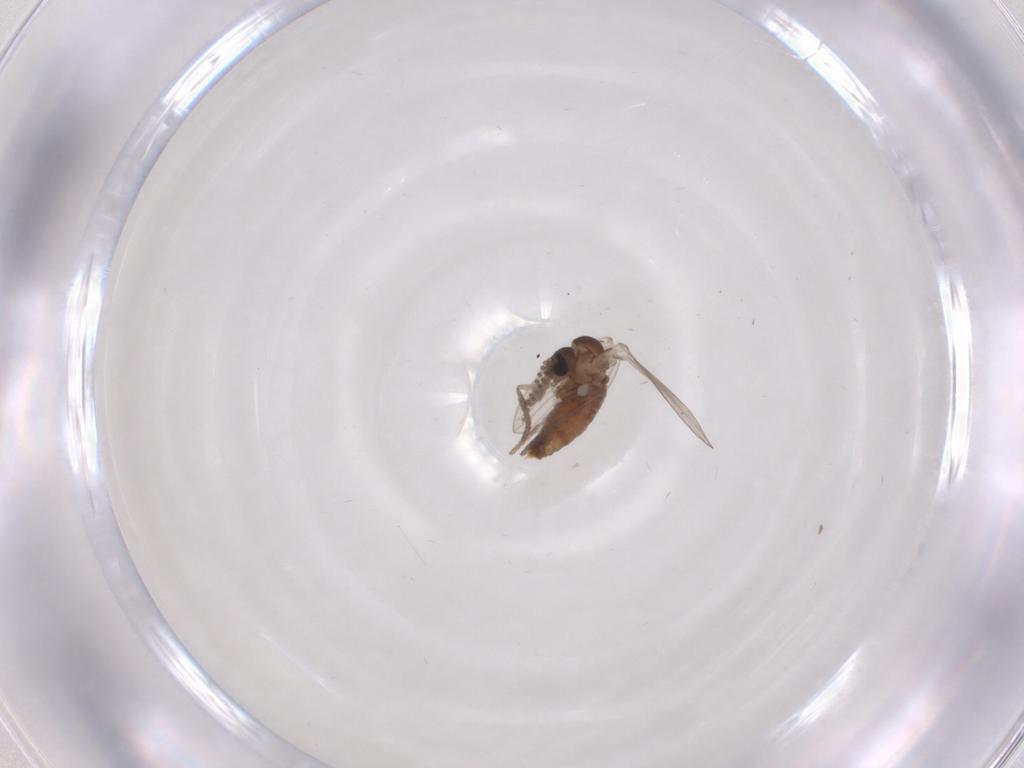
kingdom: Animalia
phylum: Arthropoda
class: Insecta
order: Diptera
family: Psychodidae
